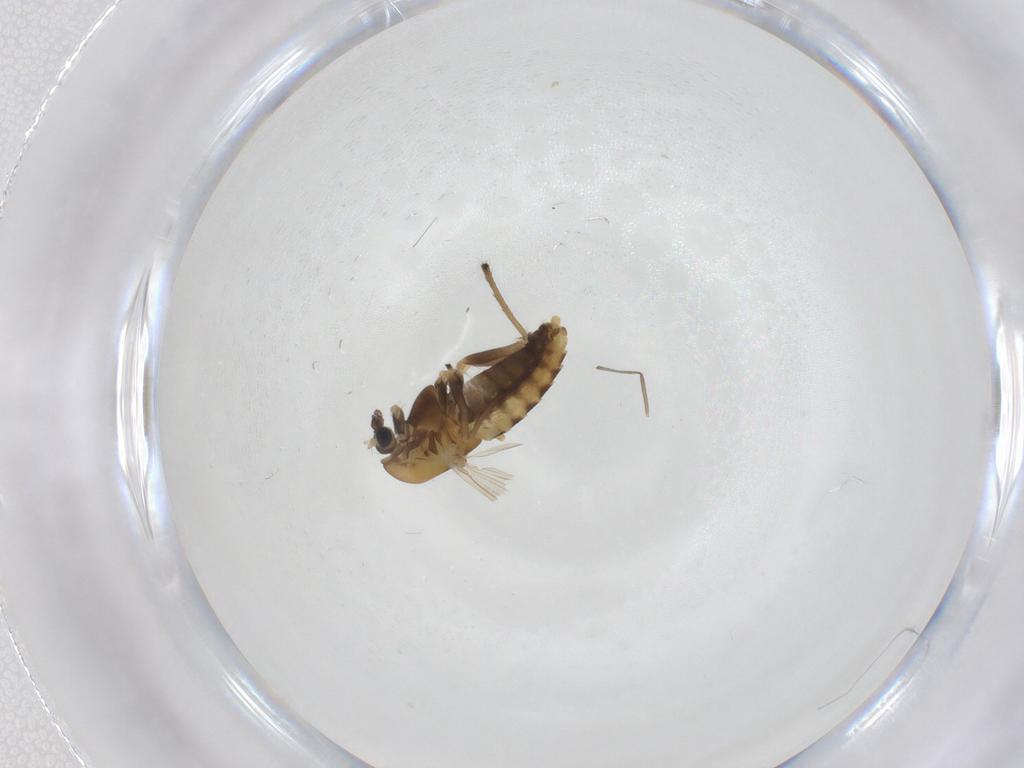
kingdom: Animalia
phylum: Arthropoda
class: Insecta
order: Diptera
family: Chironomidae
